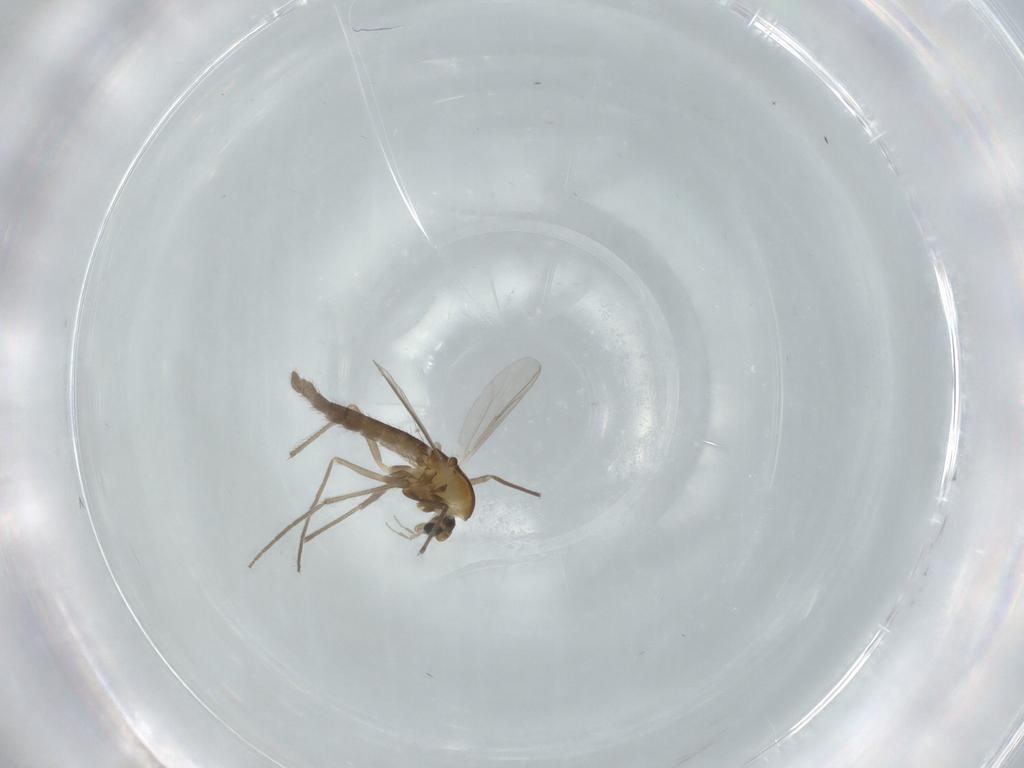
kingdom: Animalia
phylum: Arthropoda
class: Insecta
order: Diptera
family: Chironomidae
